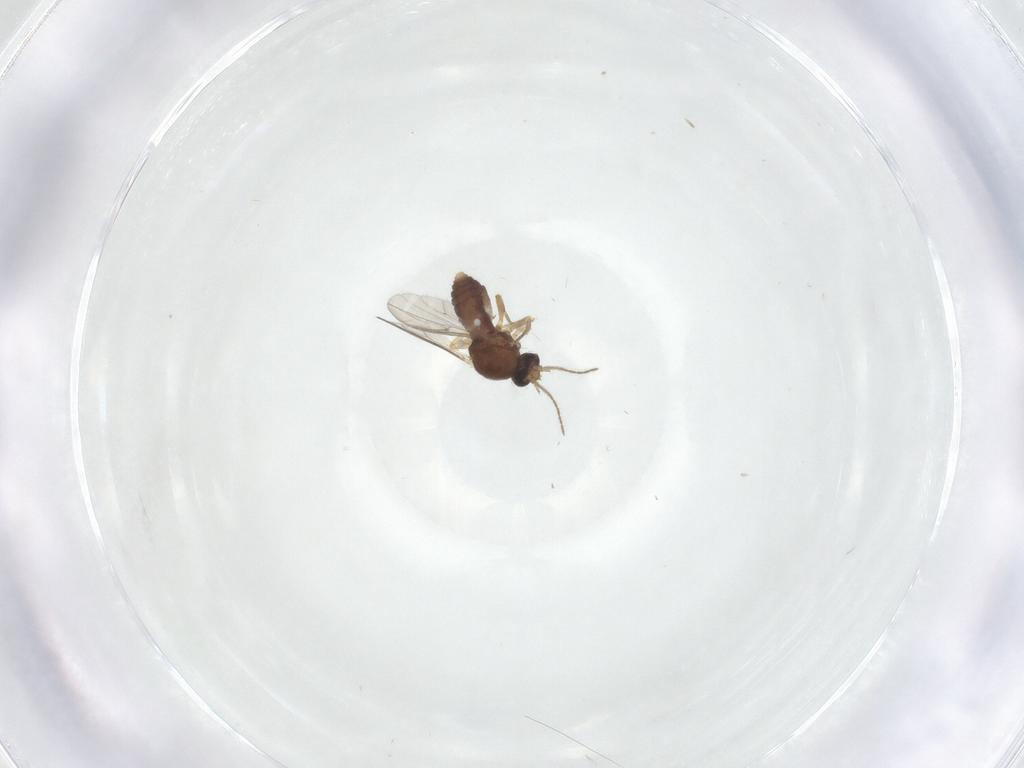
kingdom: Animalia
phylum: Arthropoda
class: Insecta
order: Diptera
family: Ceratopogonidae
